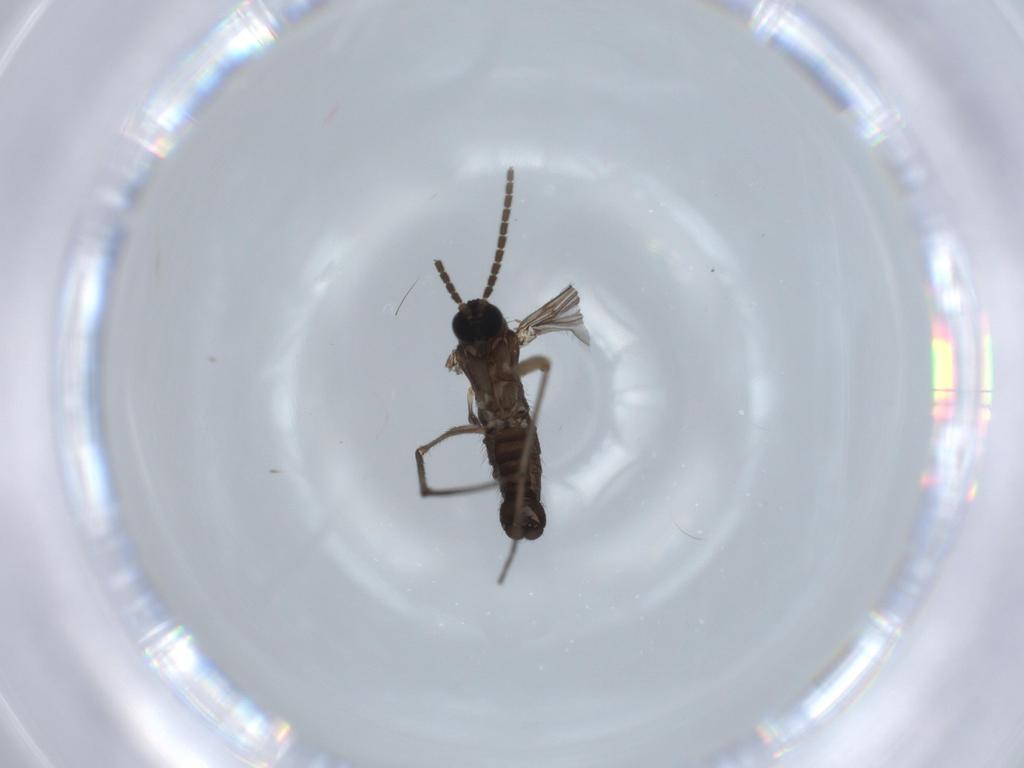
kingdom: Animalia
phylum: Arthropoda
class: Insecta
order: Diptera
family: Sciaridae
